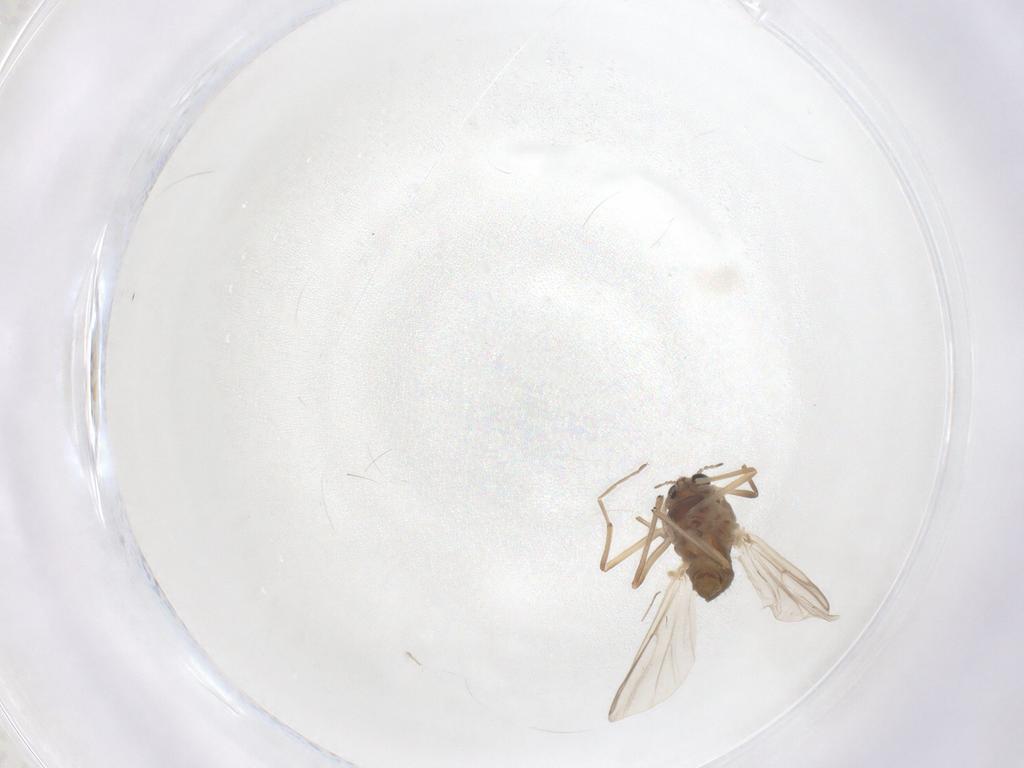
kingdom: Animalia
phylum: Arthropoda
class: Insecta
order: Diptera
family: Chironomidae
